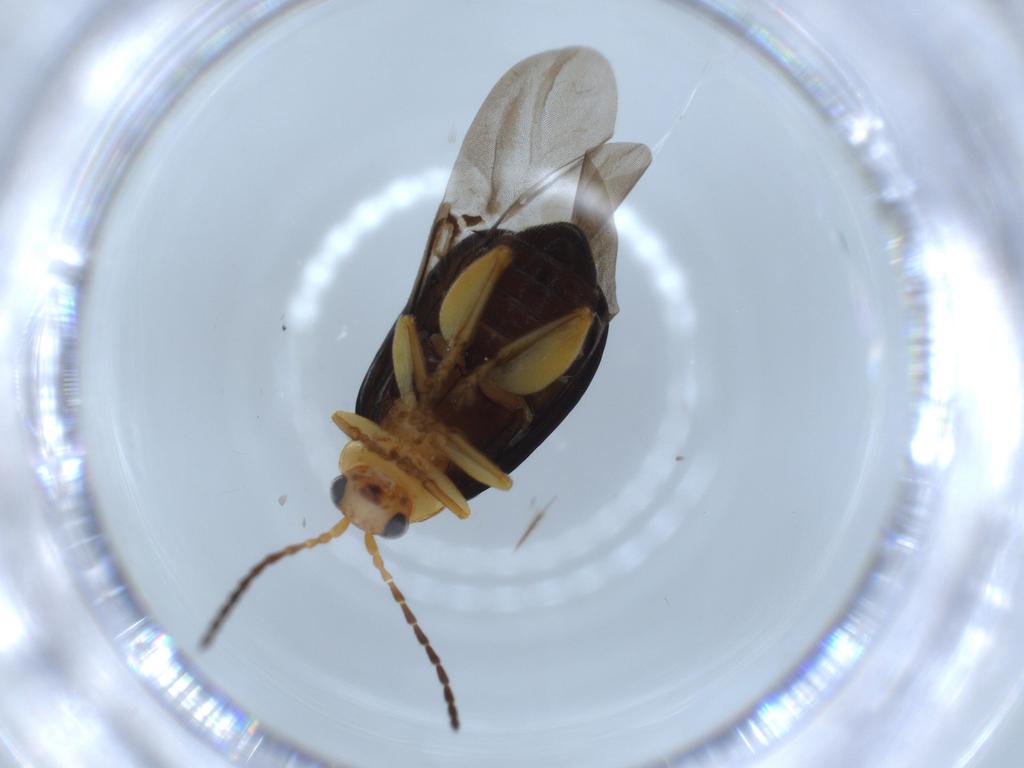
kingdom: Animalia
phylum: Arthropoda
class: Insecta
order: Coleoptera
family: Chrysomelidae
